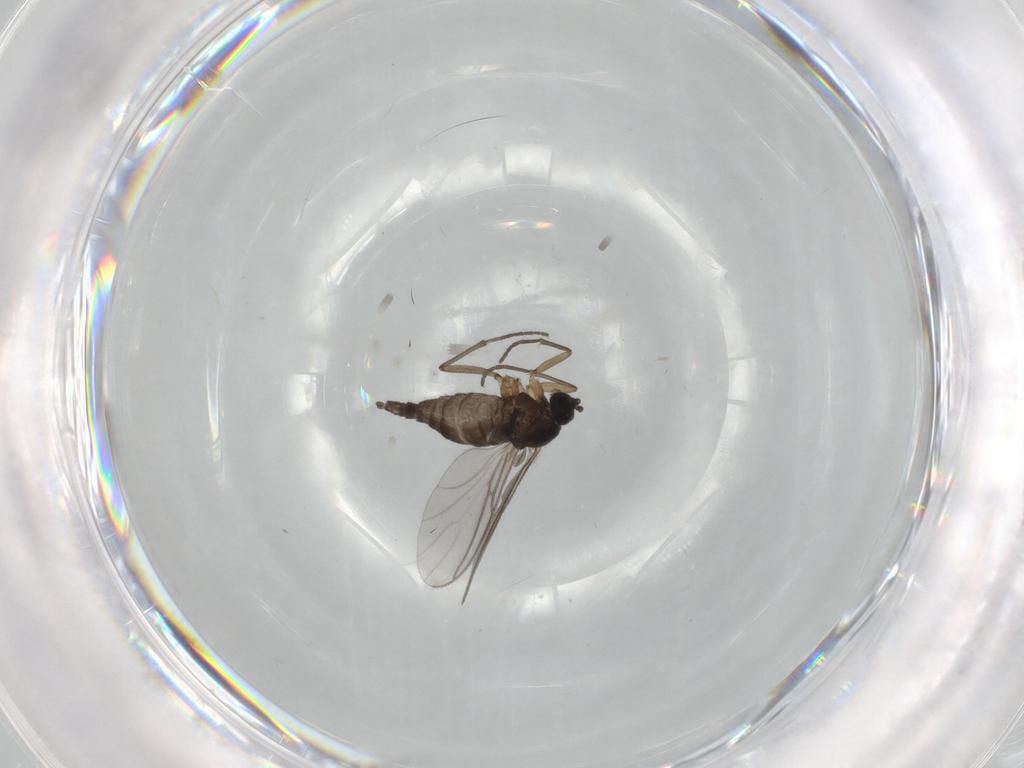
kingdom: Animalia
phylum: Arthropoda
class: Insecta
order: Diptera
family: Sciaridae
